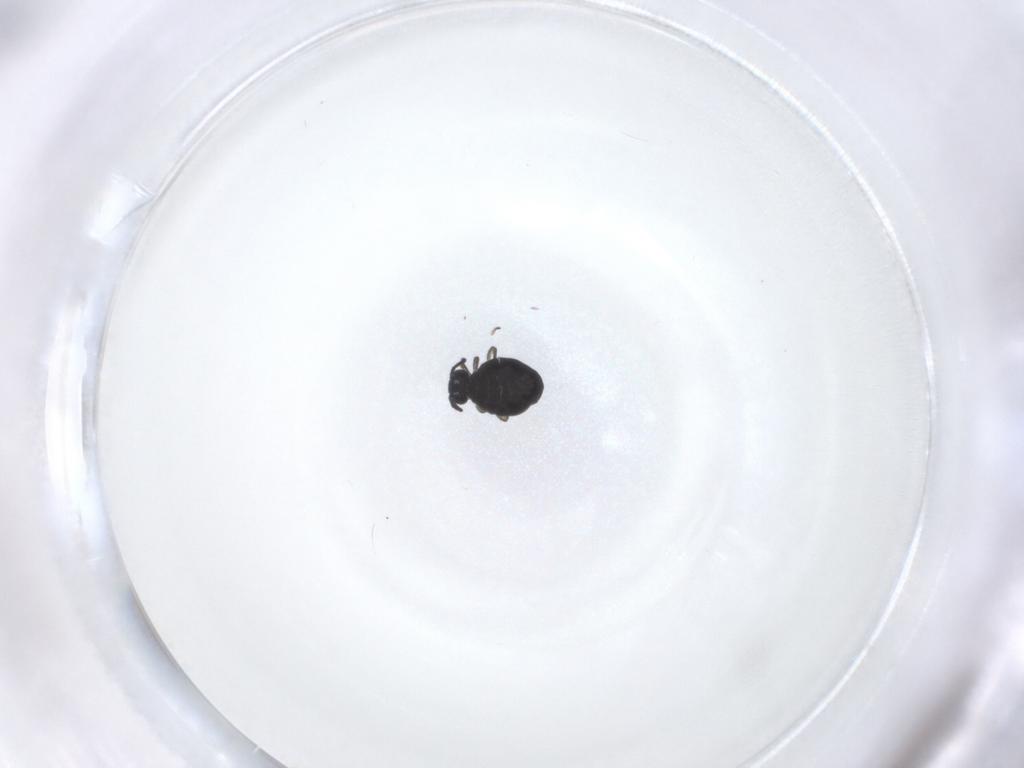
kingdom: Animalia
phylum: Arthropoda
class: Collembola
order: Symphypleona
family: Katiannidae
